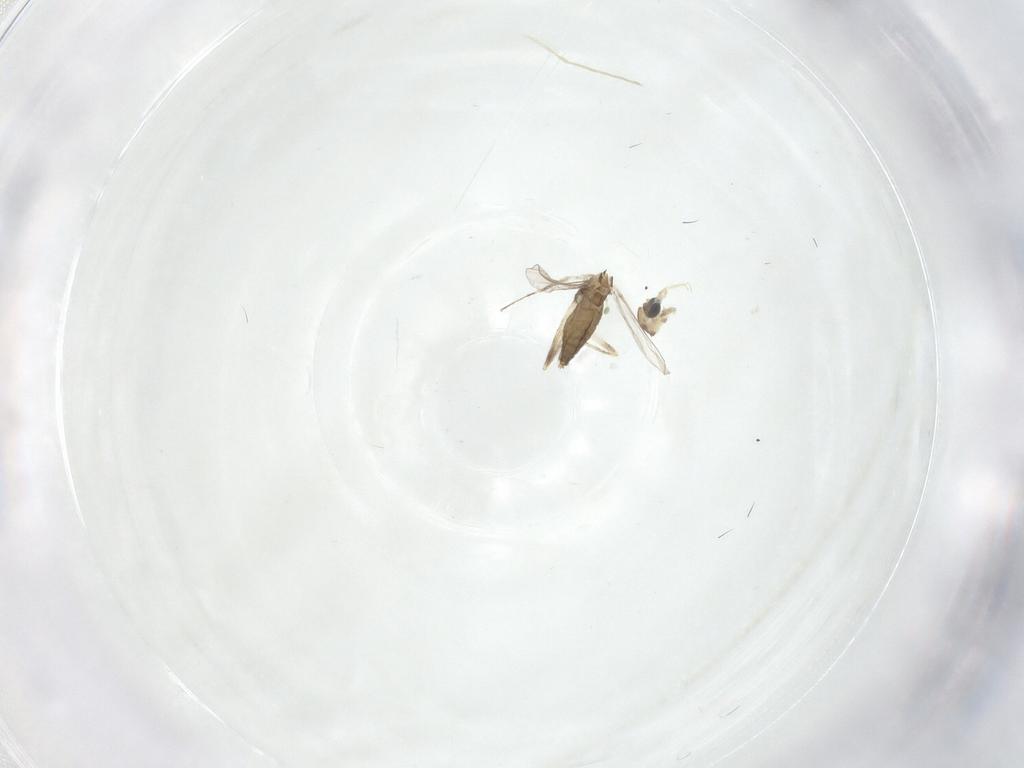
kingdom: Animalia
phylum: Arthropoda
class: Insecta
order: Diptera
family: Chironomidae
